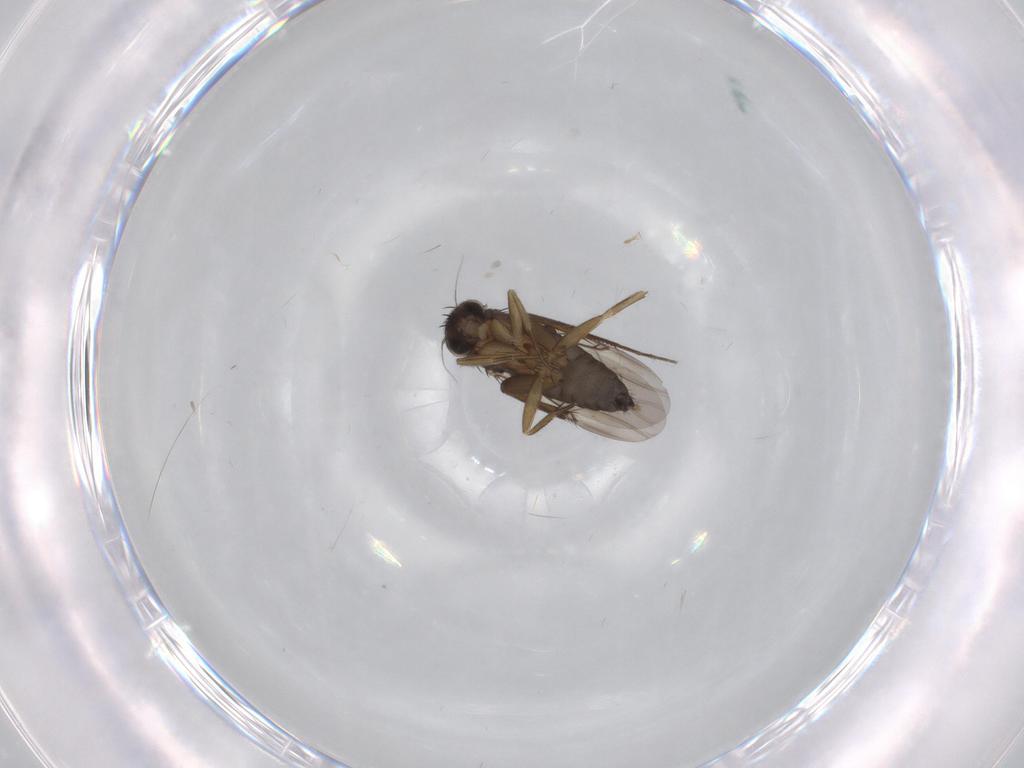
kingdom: Animalia
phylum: Arthropoda
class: Insecta
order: Diptera
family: Phoridae
